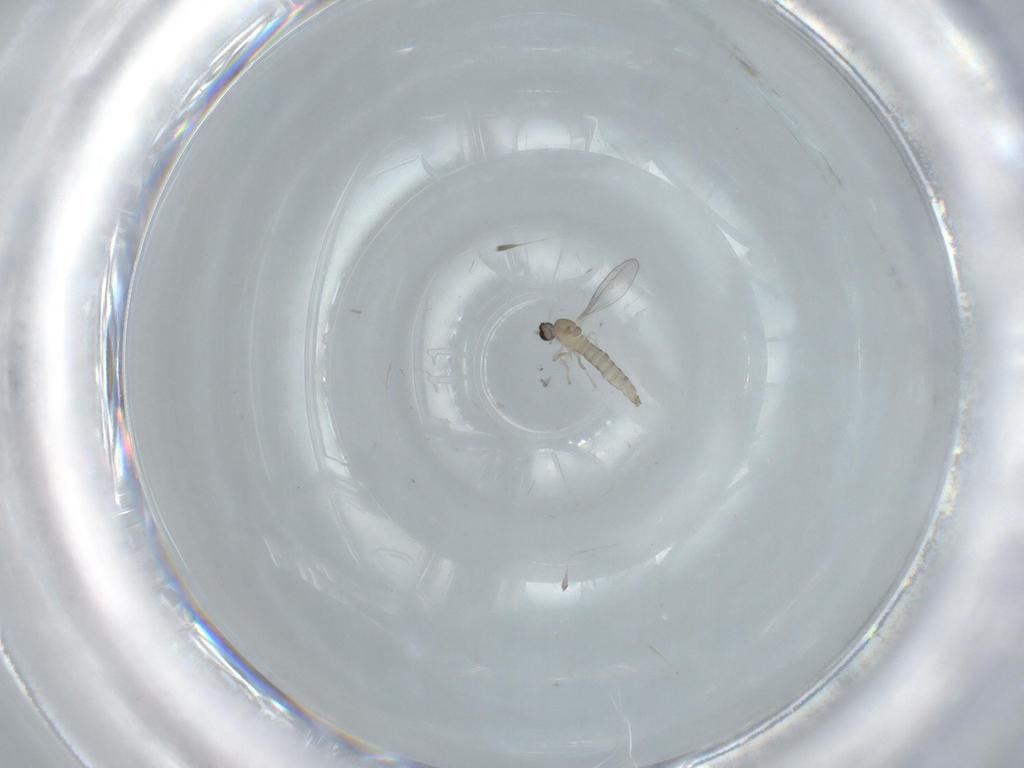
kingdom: Animalia
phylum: Arthropoda
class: Insecta
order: Diptera
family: Cecidomyiidae
